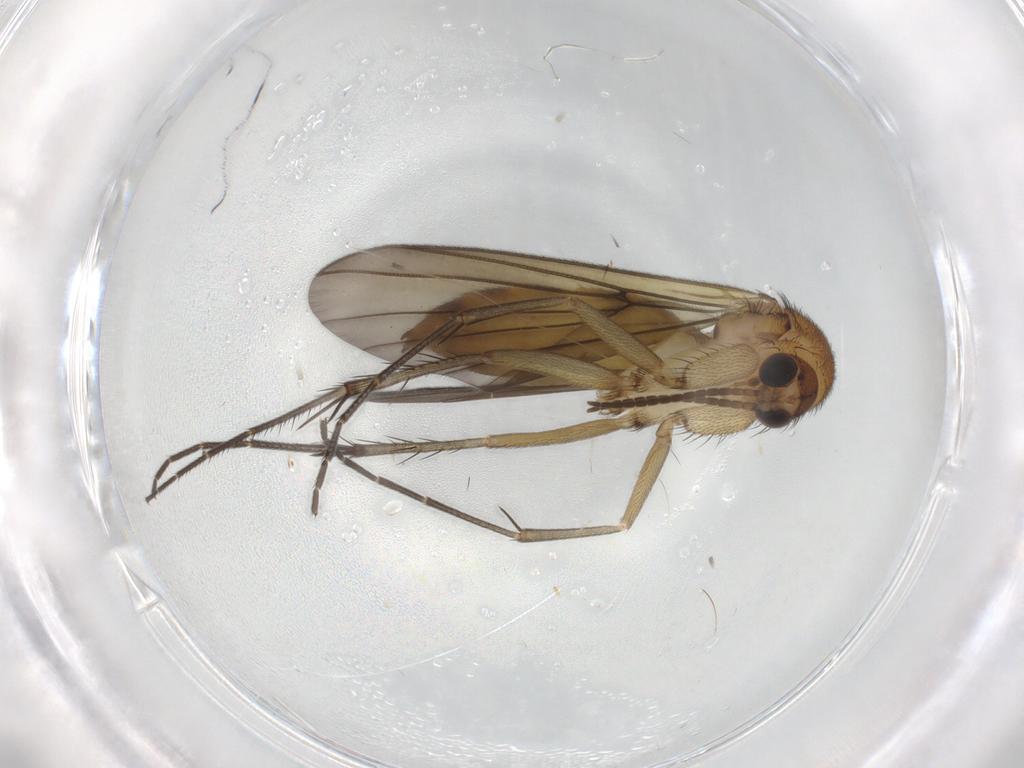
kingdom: Animalia
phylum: Arthropoda
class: Insecta
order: Diptera
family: Mycetophilidae
